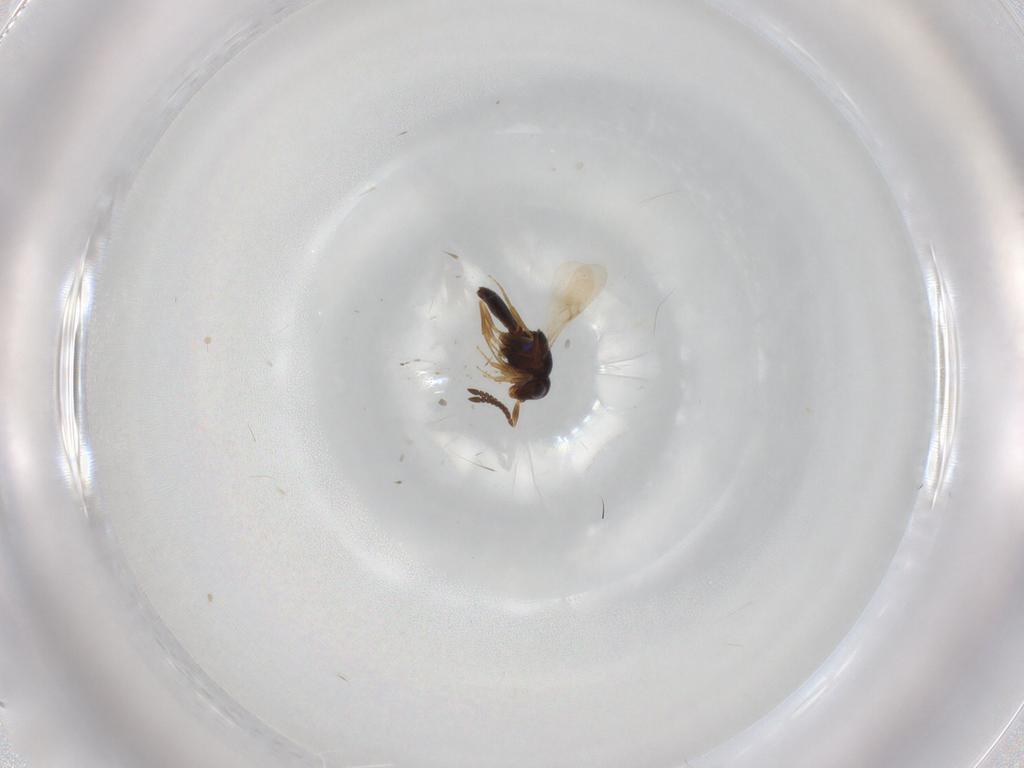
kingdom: Animalia
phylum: Arthropoda
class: Insecta
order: Hymenoptera
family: Scelionidae
